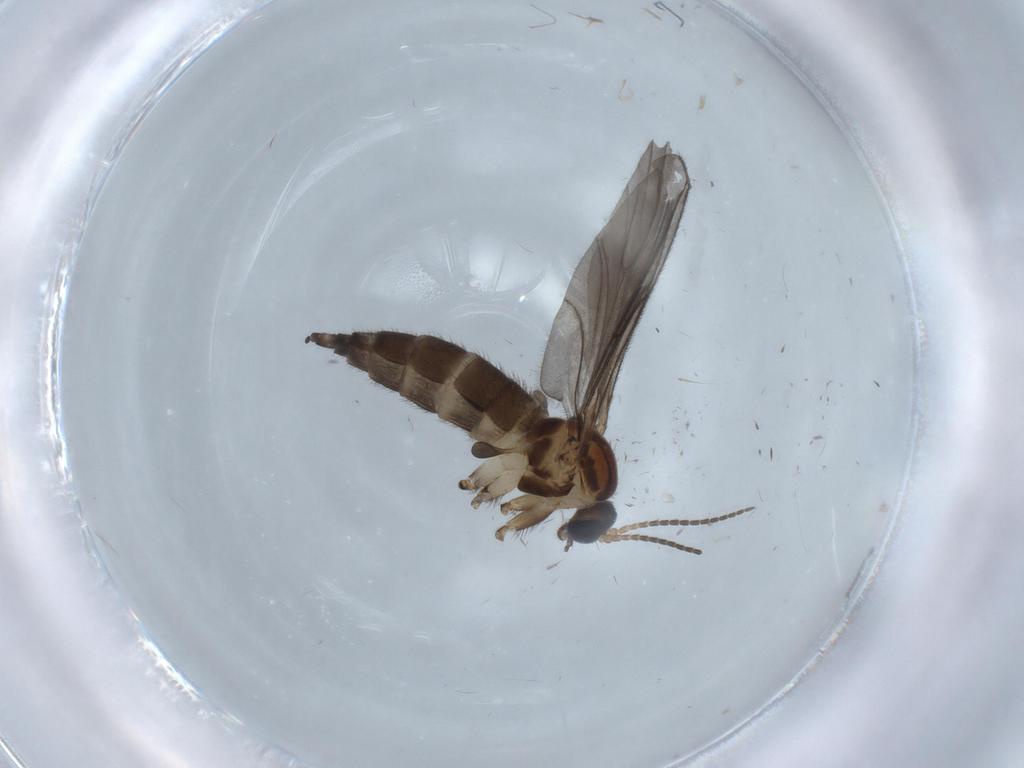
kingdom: Animalia
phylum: Arthropoda
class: Insecta
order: Diptera
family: Sciaridae
